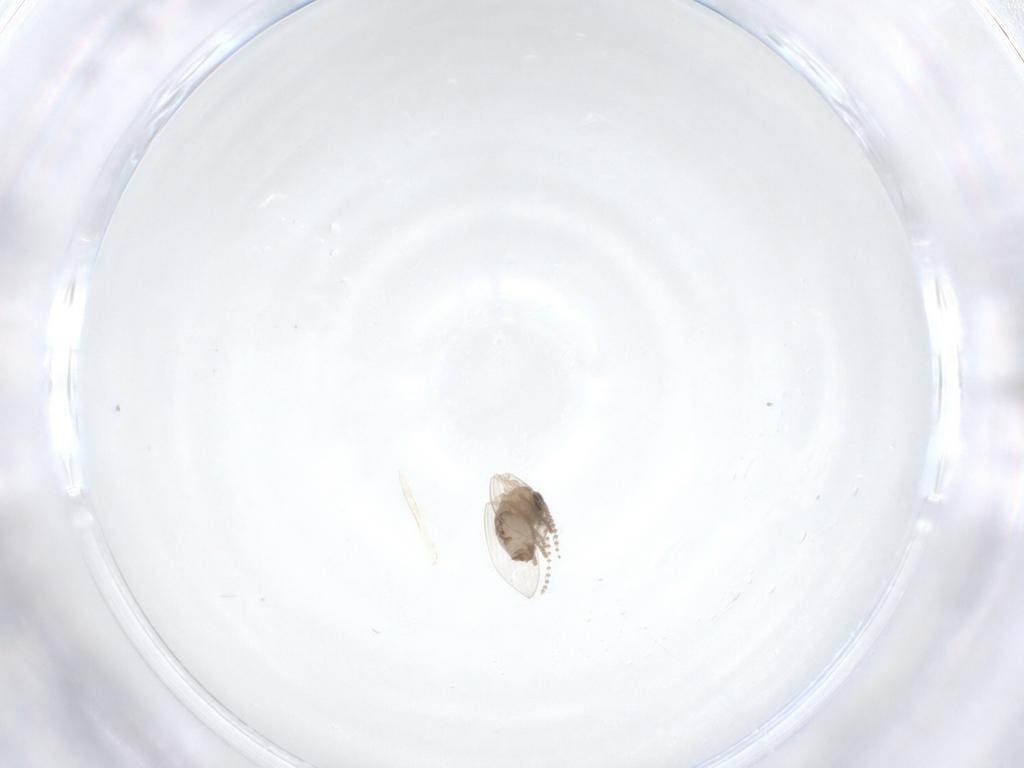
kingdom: Animalia
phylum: Arthropoda
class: Insecta
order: Diptera
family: Psychodidae
